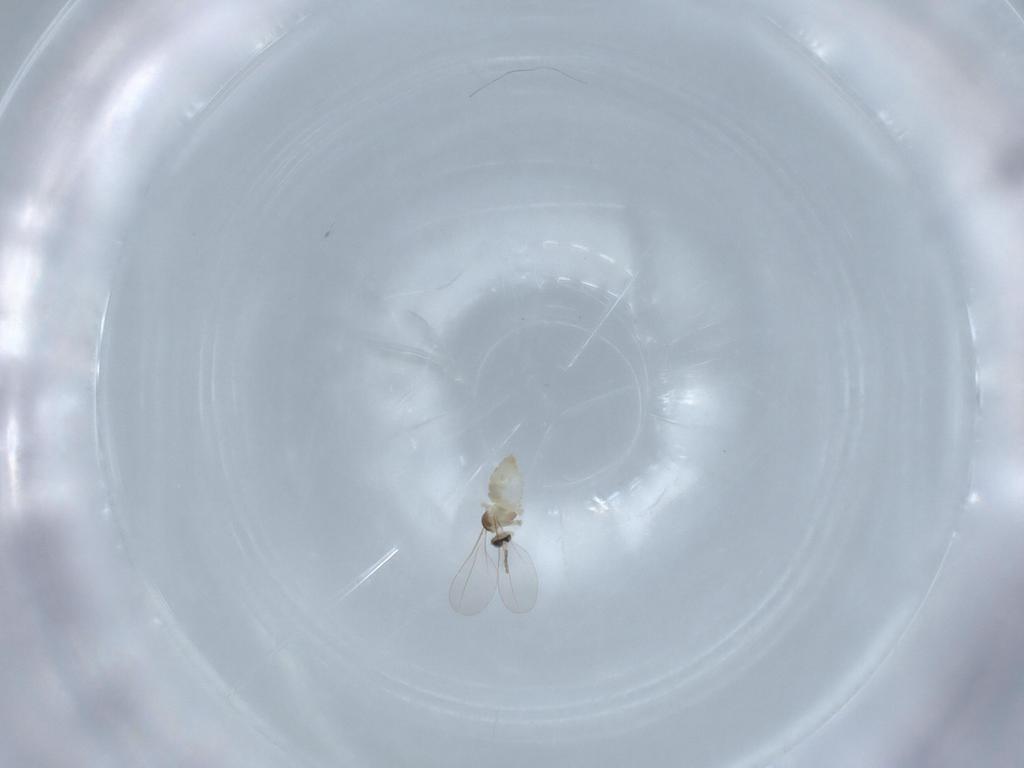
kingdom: Animalia
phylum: Arthropoda
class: Insecta
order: Diptera
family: Cecidomyiidae
